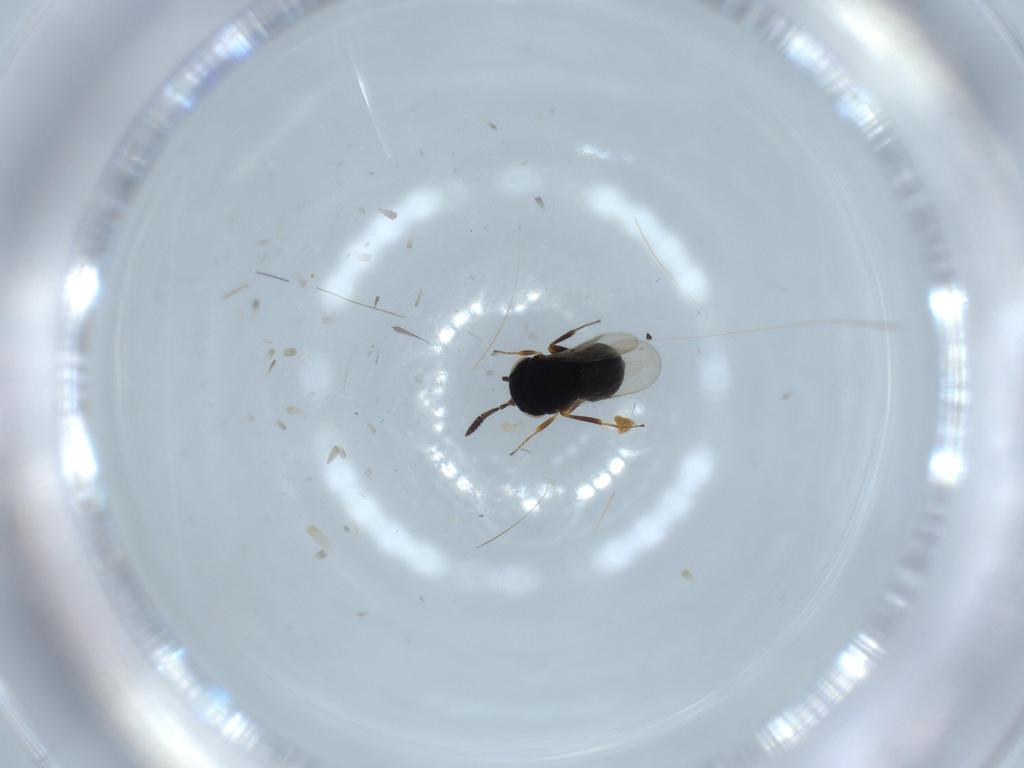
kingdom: Animalia
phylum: Arthropoda
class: Insecta
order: Hymenoptera
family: Scelionidae
